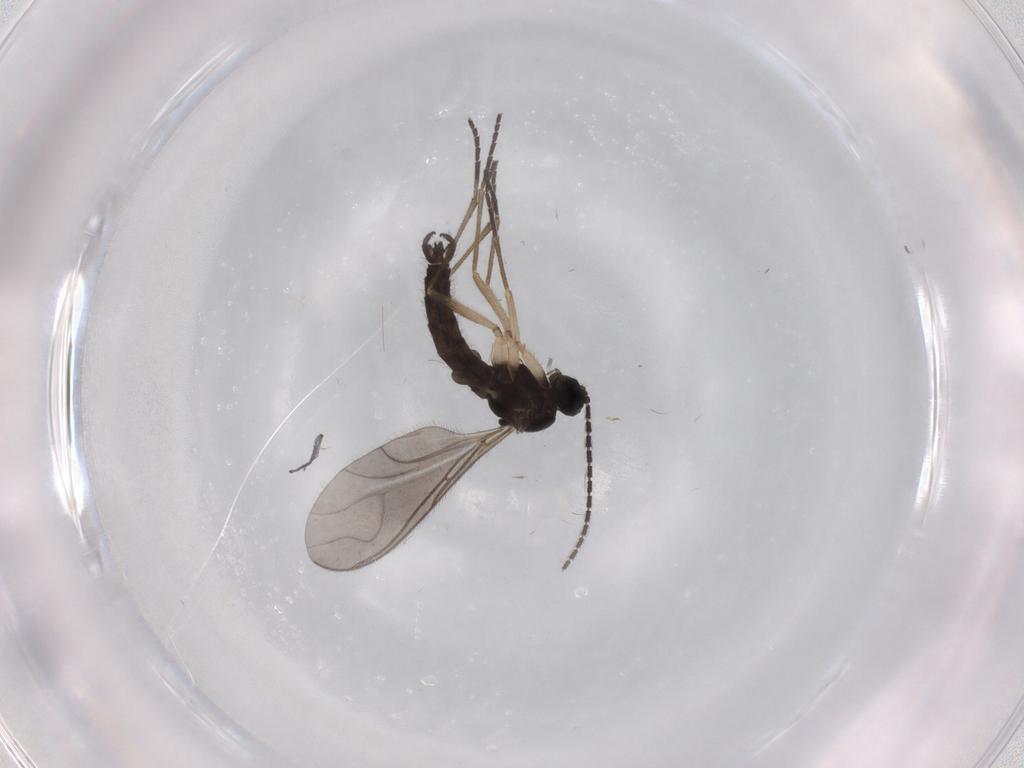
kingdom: Animalia
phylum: Arthropoda
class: Insecta
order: Diptera
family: Sciaridae
